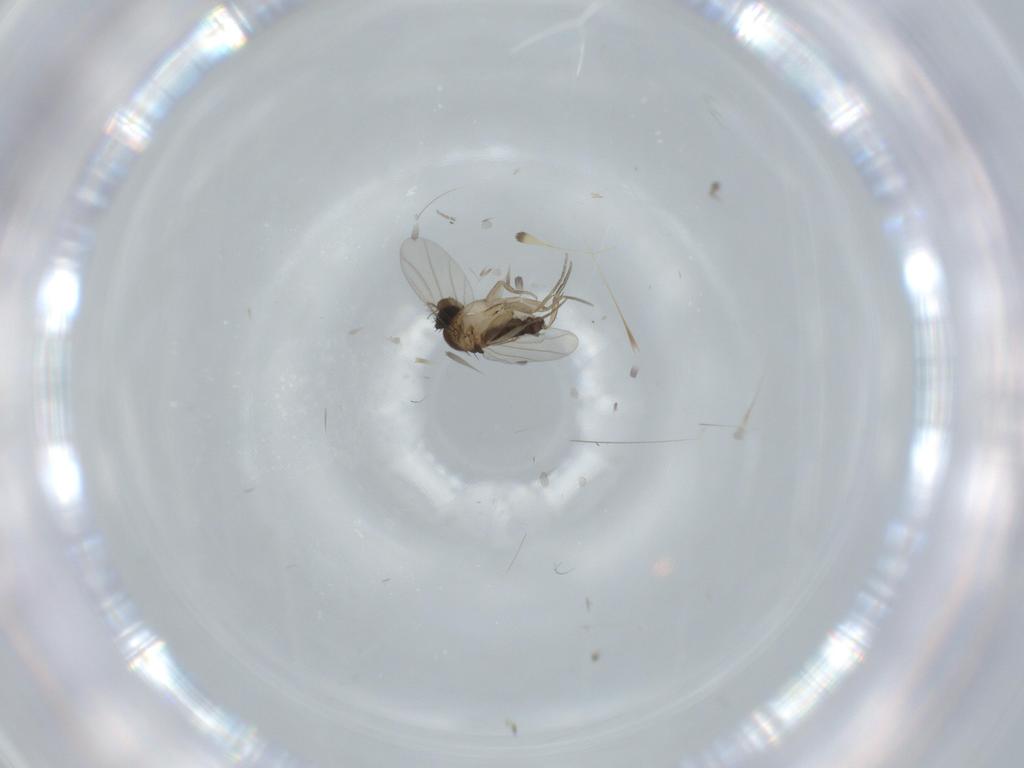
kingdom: Animalia
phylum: Arthropoda
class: Insecta
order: Diptera
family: Phoridae
